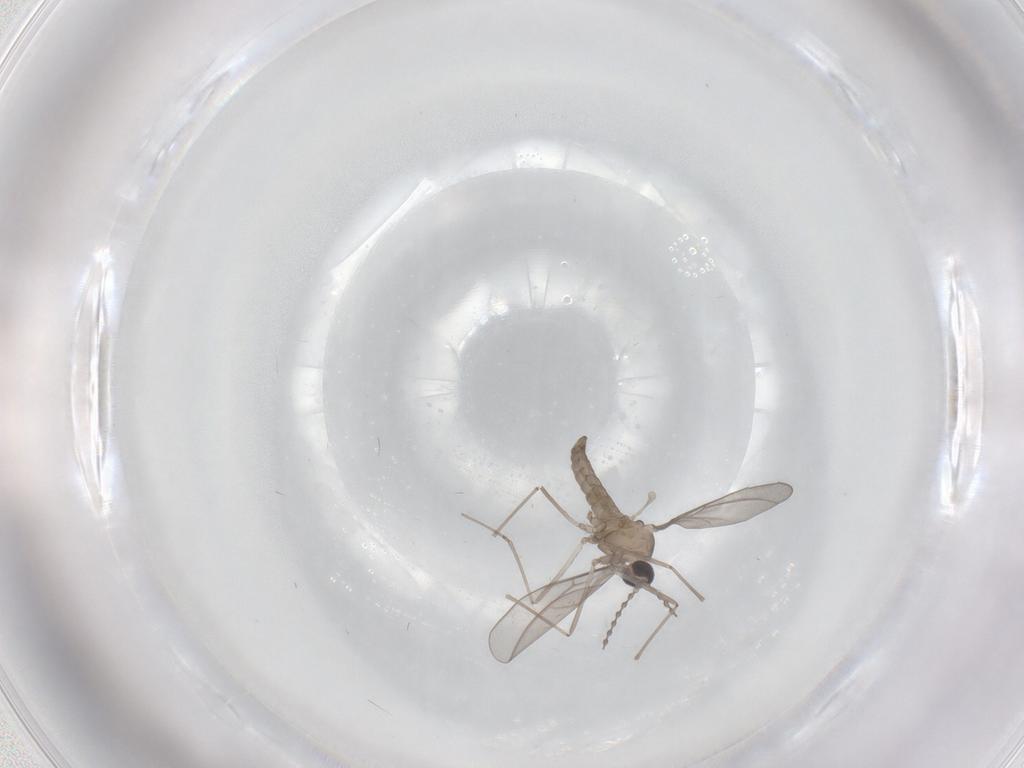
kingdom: Animalia
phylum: Arthropoda
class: Insecta
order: Diptera
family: Cecidomyiidae
